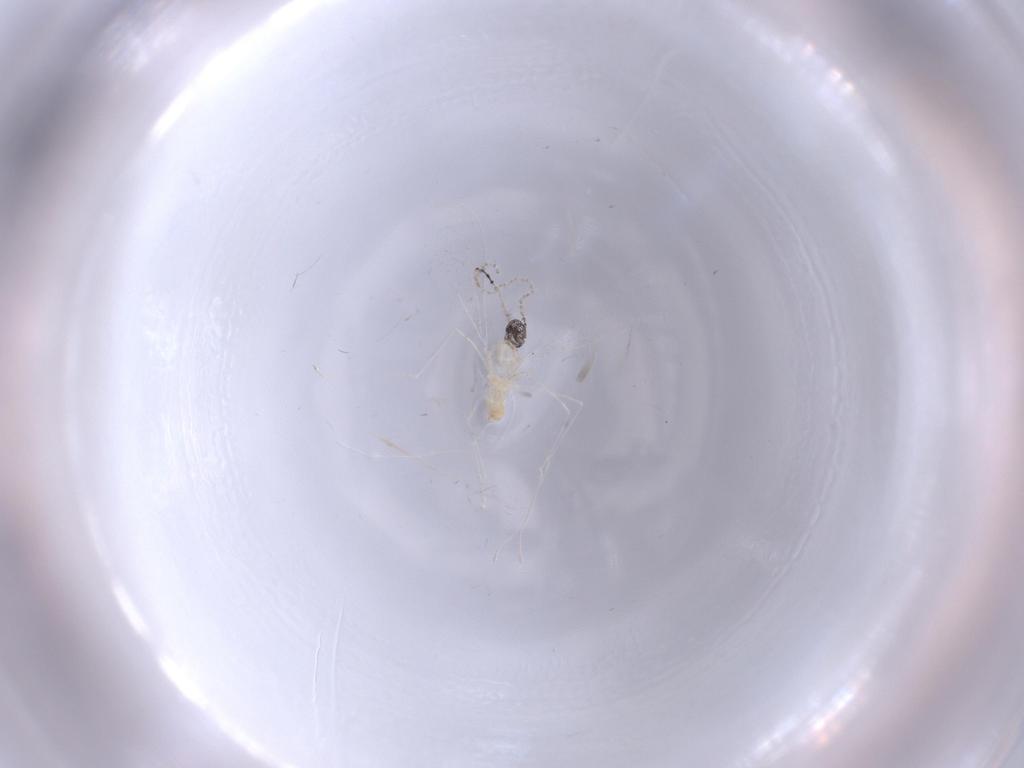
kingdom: Animalia
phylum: Arthropoda
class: Insecta
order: Diptera
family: Cecidomyiidae
